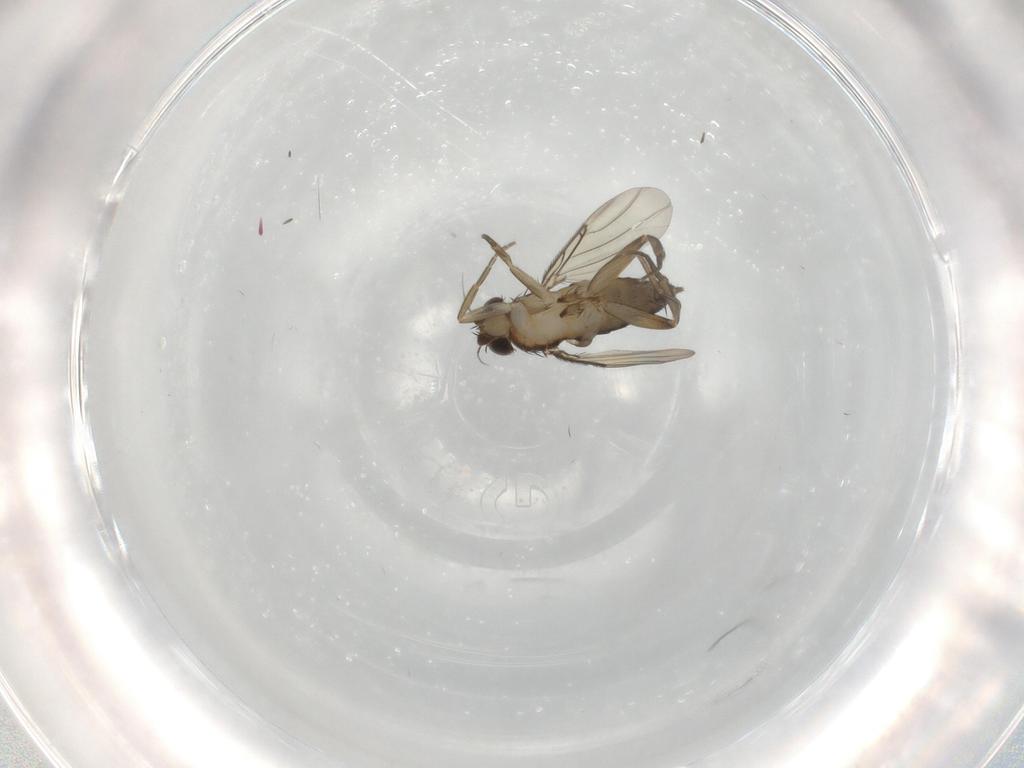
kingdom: Animalia
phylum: Arthropoda
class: Insecta
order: Diptera
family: Phoridae
